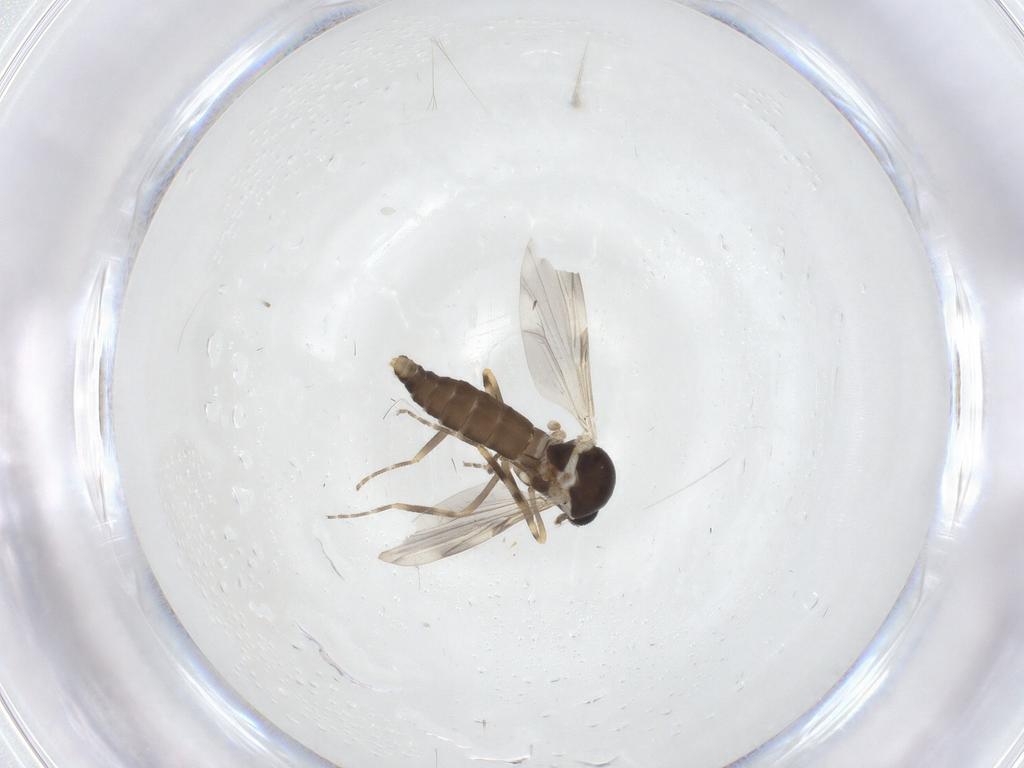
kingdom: Animalia
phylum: Arthropoda
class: Insecta
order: Diptera
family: Ceratopogonidae
